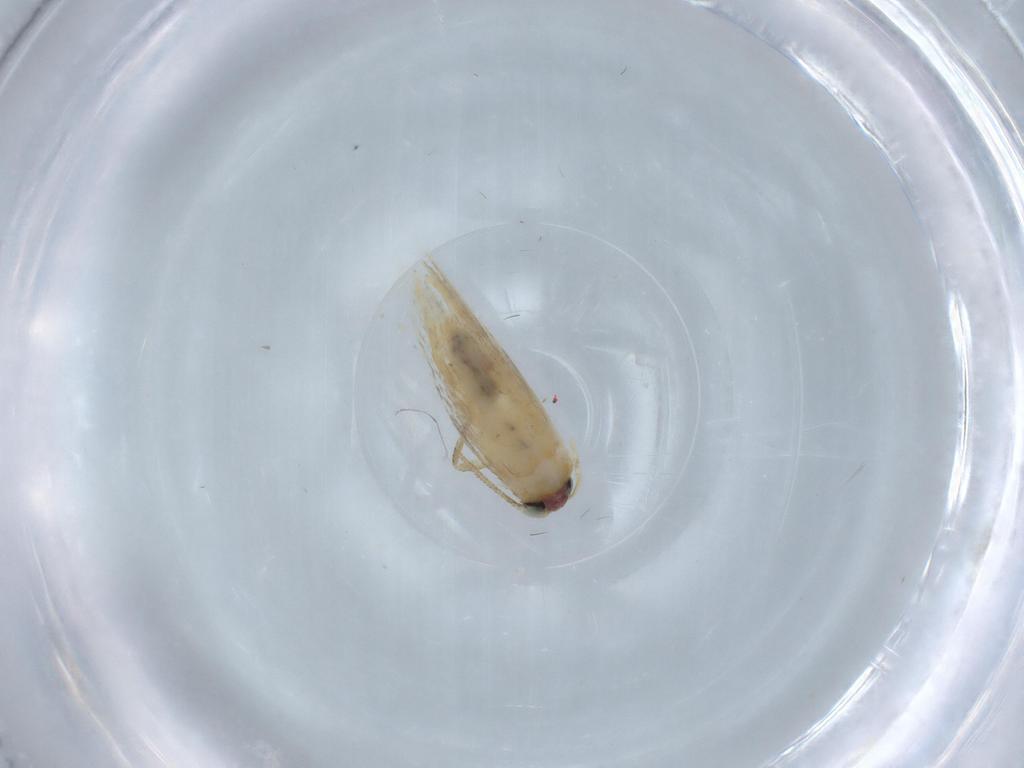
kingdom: Animalia
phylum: Arthropoda
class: Insecta
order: Lepidoptera
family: Nepticulidae
